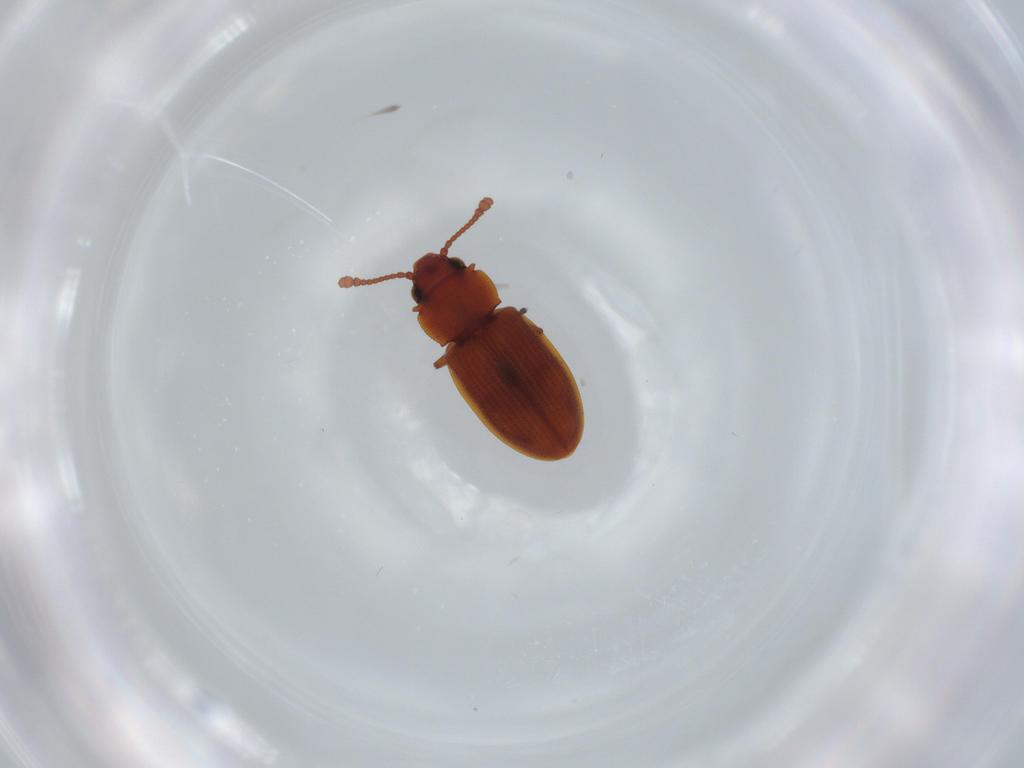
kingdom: Animalia
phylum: Arthropoda
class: Insecta
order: Coleoptera
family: Silvanidae
